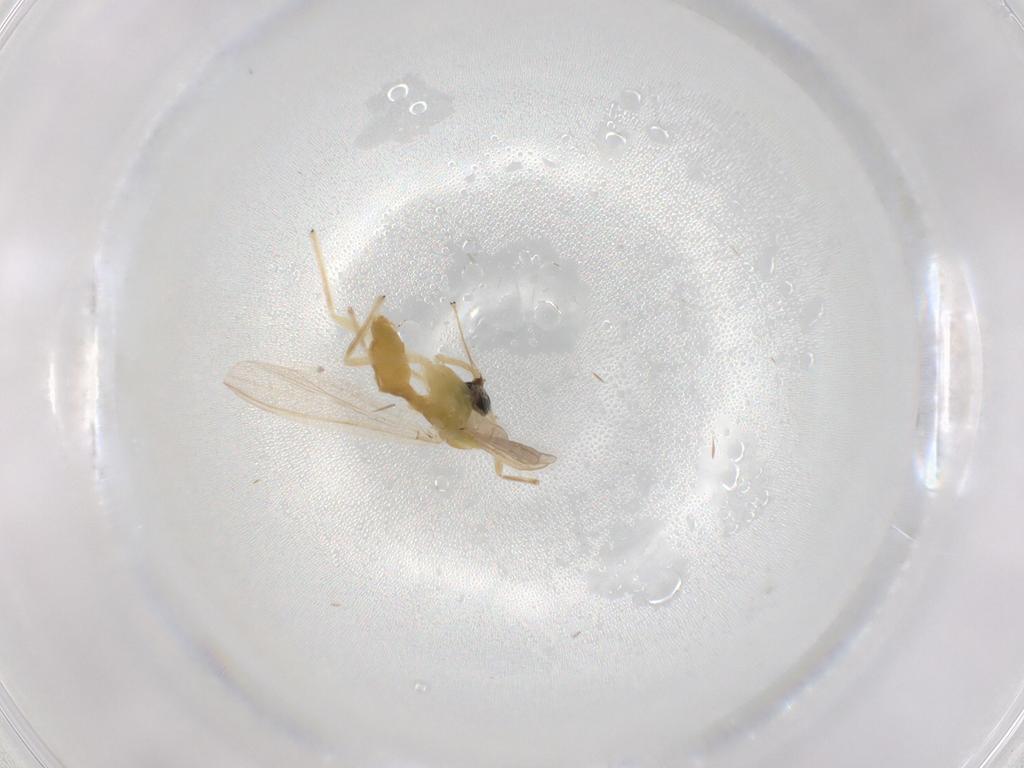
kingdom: Animalia
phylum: Arthropoda
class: Insecta
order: Diptera
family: Chironomidae
